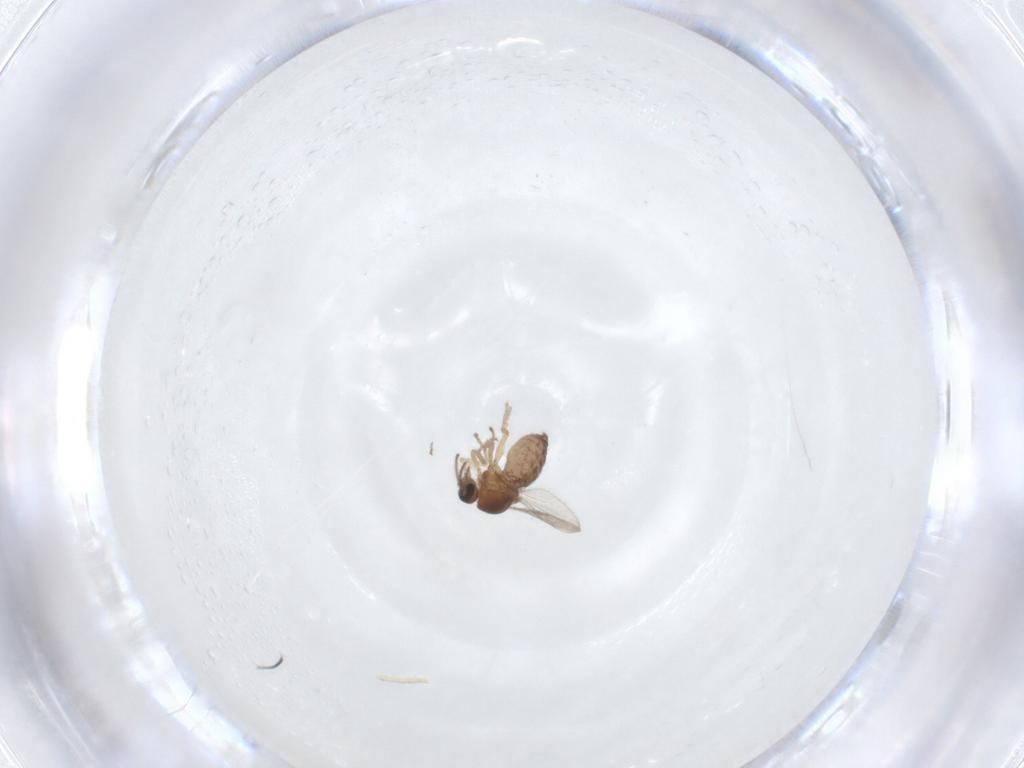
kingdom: Animalia
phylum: Arthropoda
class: Insecta
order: Diptera
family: Ceratopogonidae
